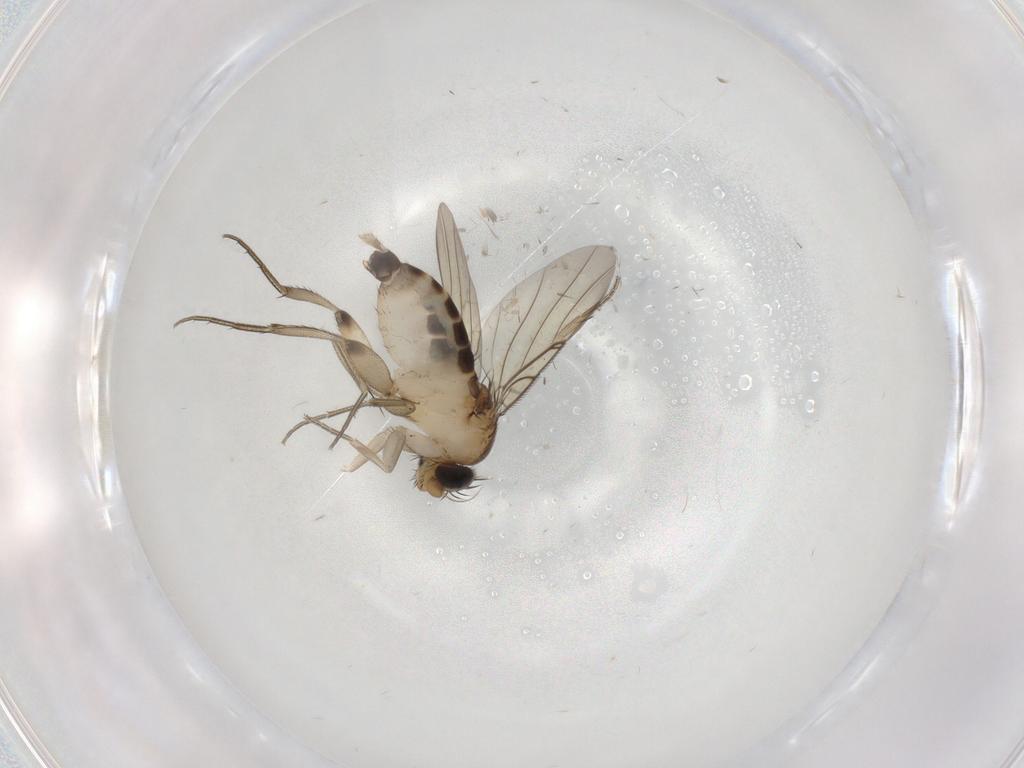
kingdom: Animalia
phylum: Arthropoda
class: Insecta
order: Diptera
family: Phoridae
